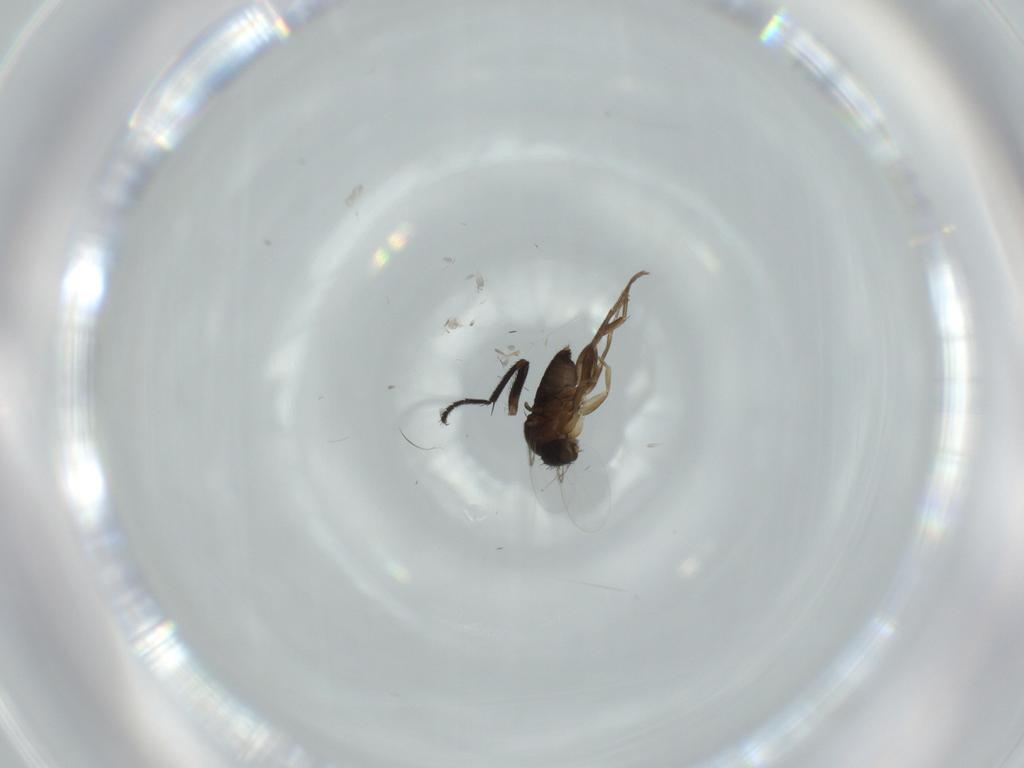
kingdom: Animalia
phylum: Arthropoda
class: Insecta
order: Diptera
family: Phoridae
